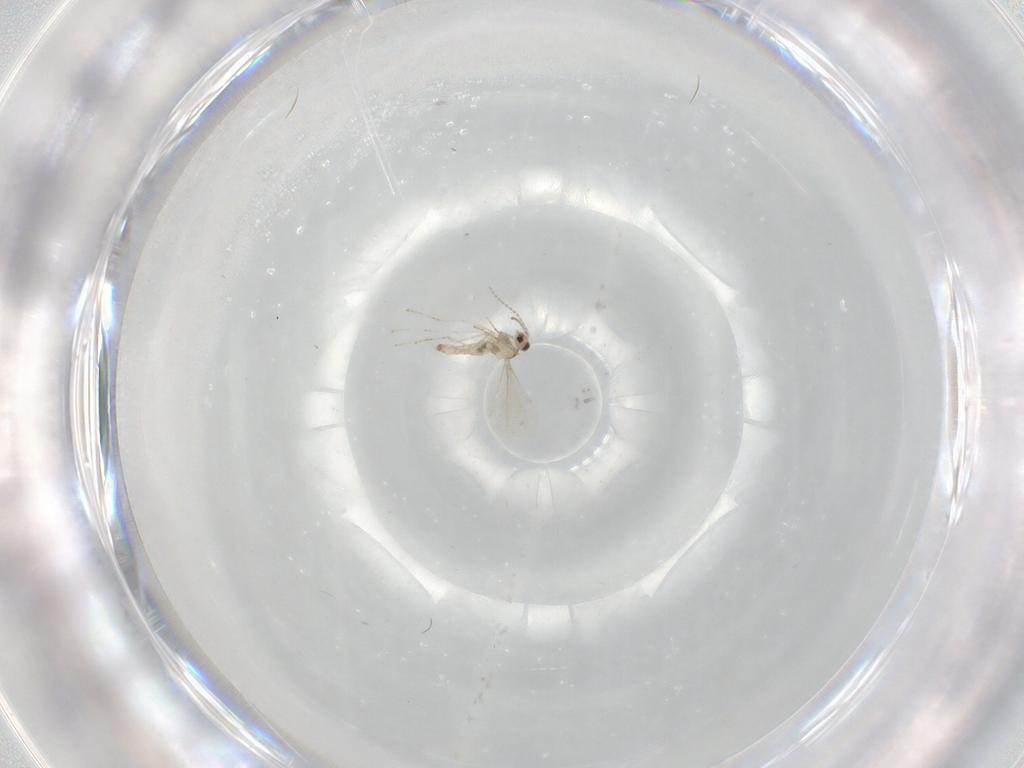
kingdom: Animalia
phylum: Arthropoda
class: Insecta
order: Diptera
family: Cecidomyiidae
